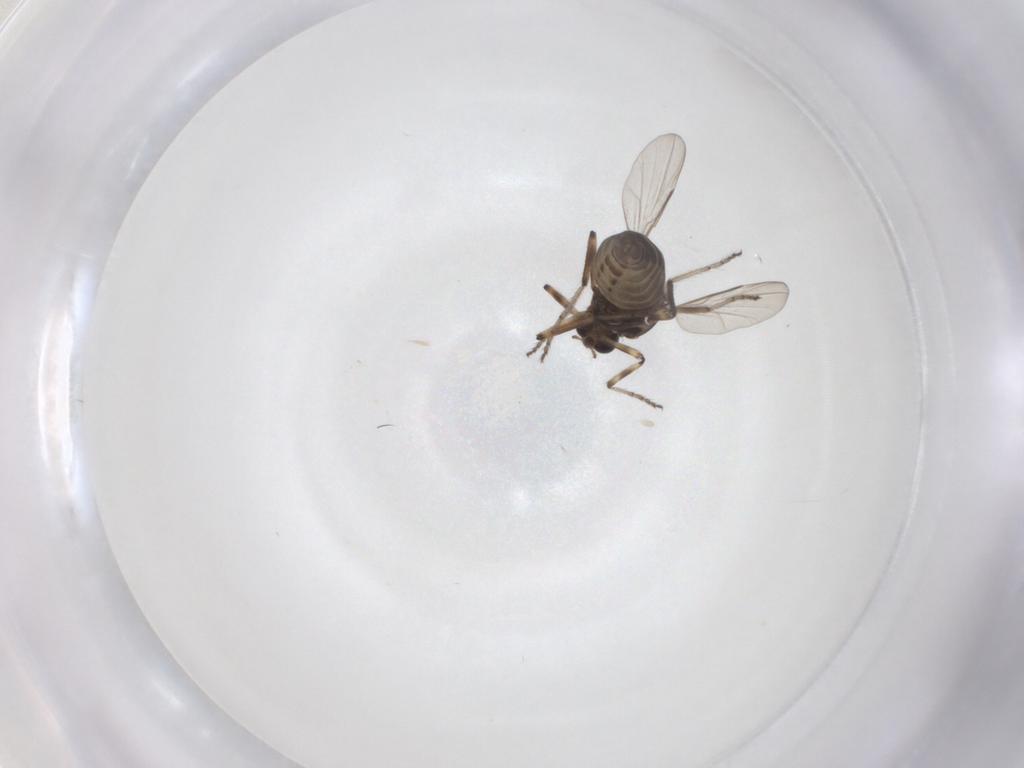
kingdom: Animalia
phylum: Arthropoda
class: Insecta
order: Diptera
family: Ceratopogonidae
